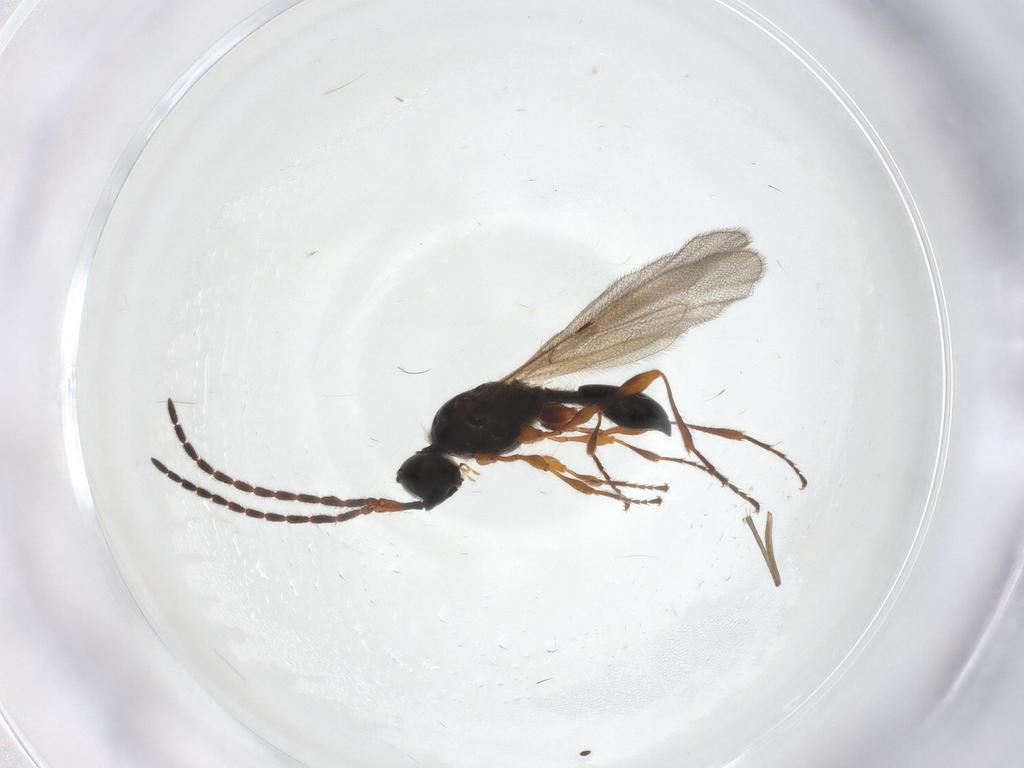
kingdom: Animalia
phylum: Arthropoda
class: Insecta
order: Hymenoptera
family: Diapriidae
